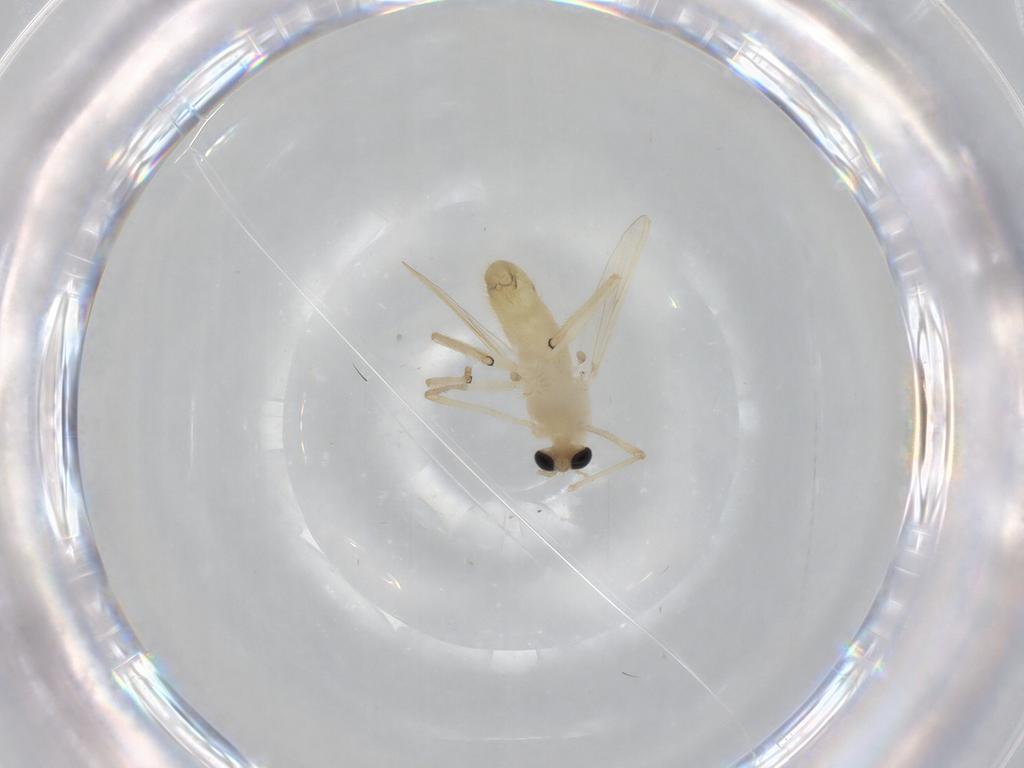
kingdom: Animalia
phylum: Arthropoda
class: Insecta
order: Diptera
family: Chironomidae
